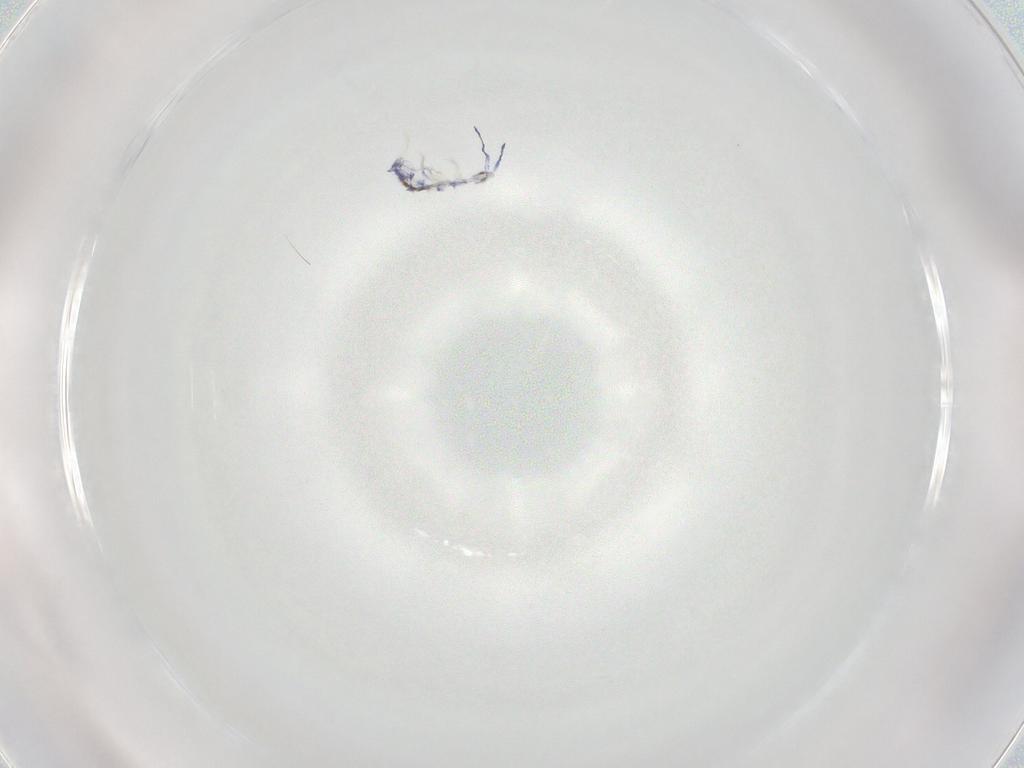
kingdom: Animalia
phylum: Arthropoda
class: Collembola
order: Entomobryomorpha
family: Entomobryidae
